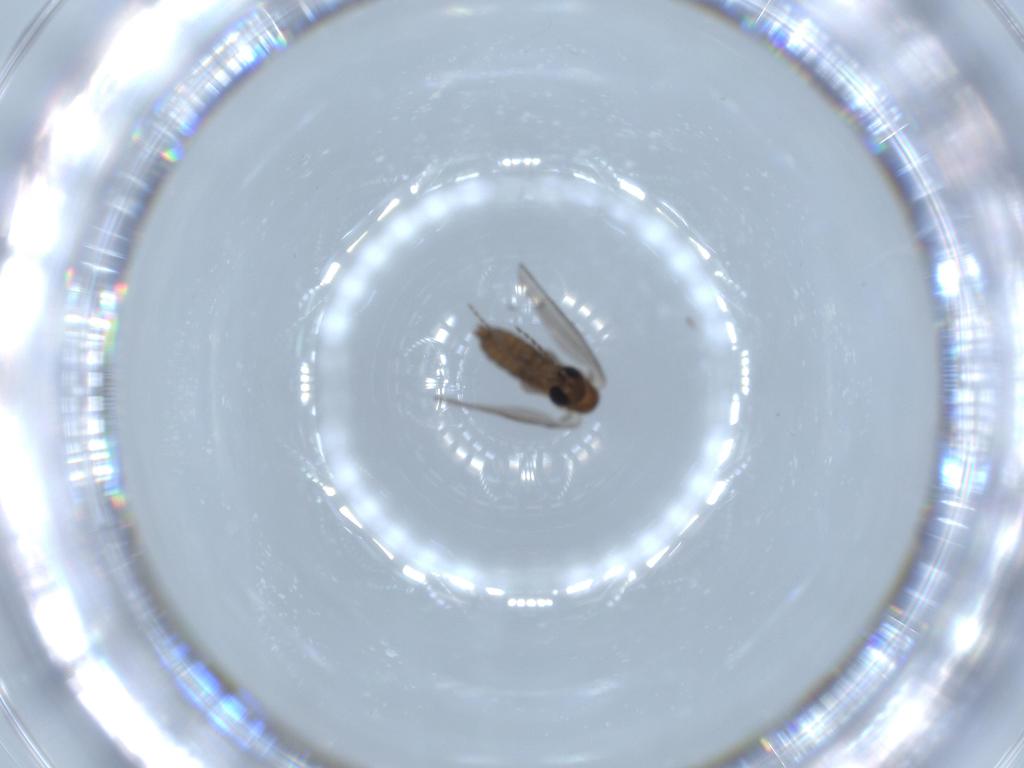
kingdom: Animalia
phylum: Arthropoda
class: Insecta
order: Diptera
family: Psychodidae
